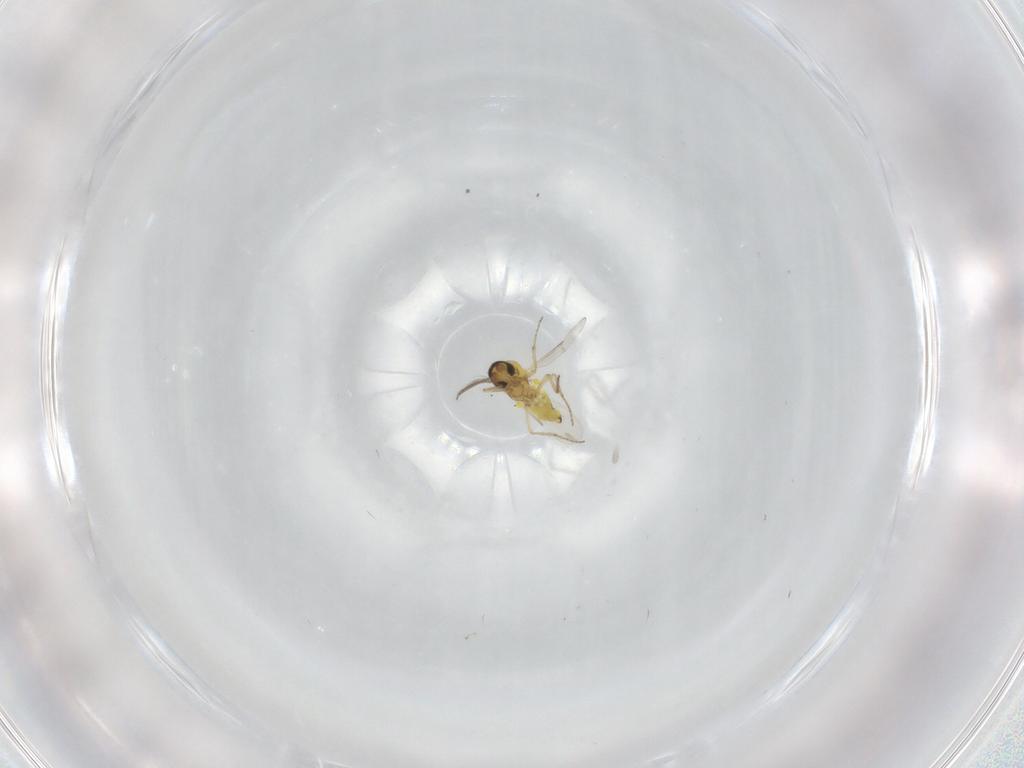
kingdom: Animalia
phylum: Arthropoda
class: Insecta
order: Diptera
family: Ceratopogonidae
